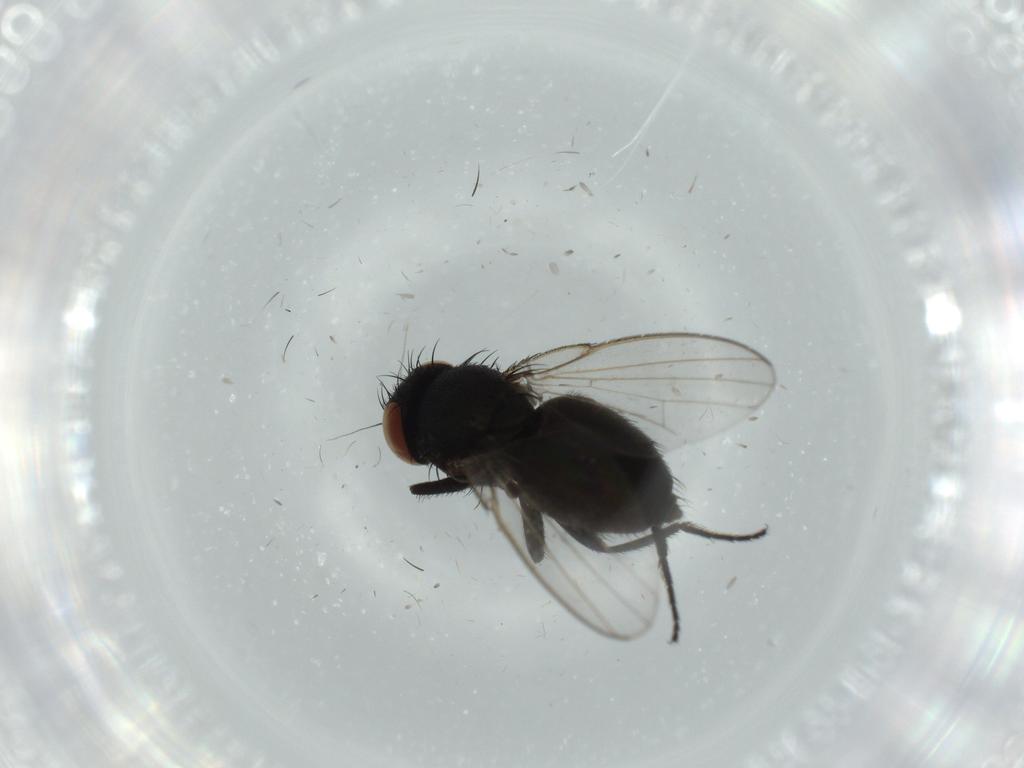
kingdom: Animalia
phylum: Arthropoda
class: Insecta
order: Diptera
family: Milichiidae
